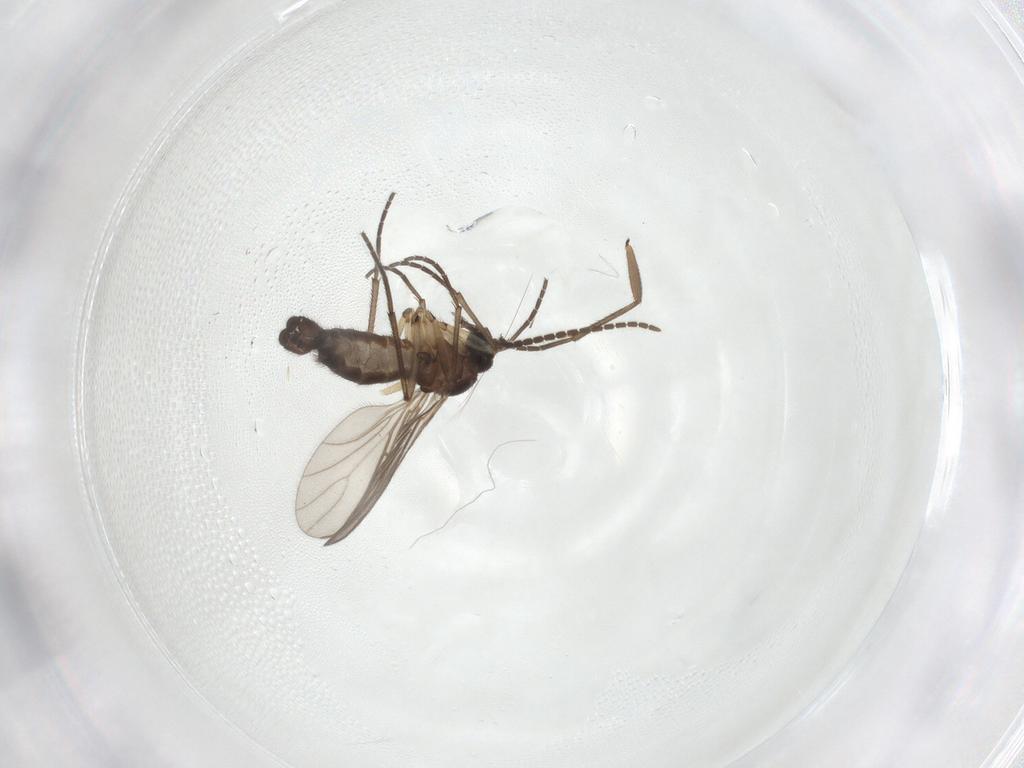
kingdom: Animalia
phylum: Arthropoda
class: Insecta
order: Diptera
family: Sciaridae
